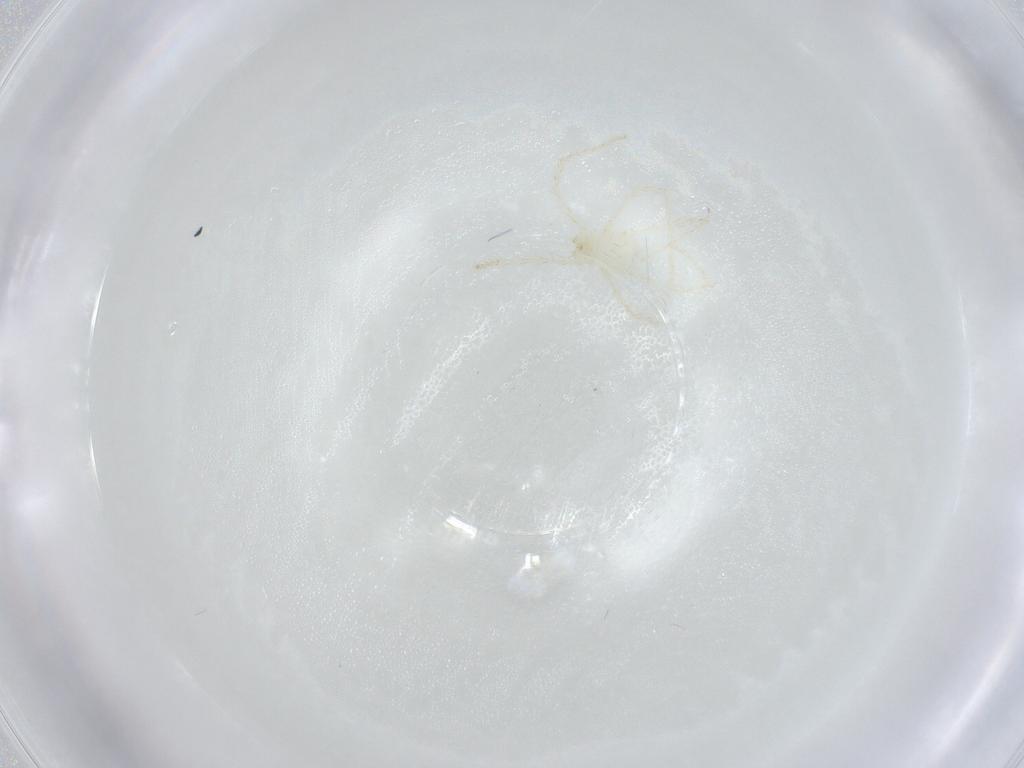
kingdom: Animalia
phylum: Arthropoda
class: Arachnida
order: Trombidiformes
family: Erythraeidae
